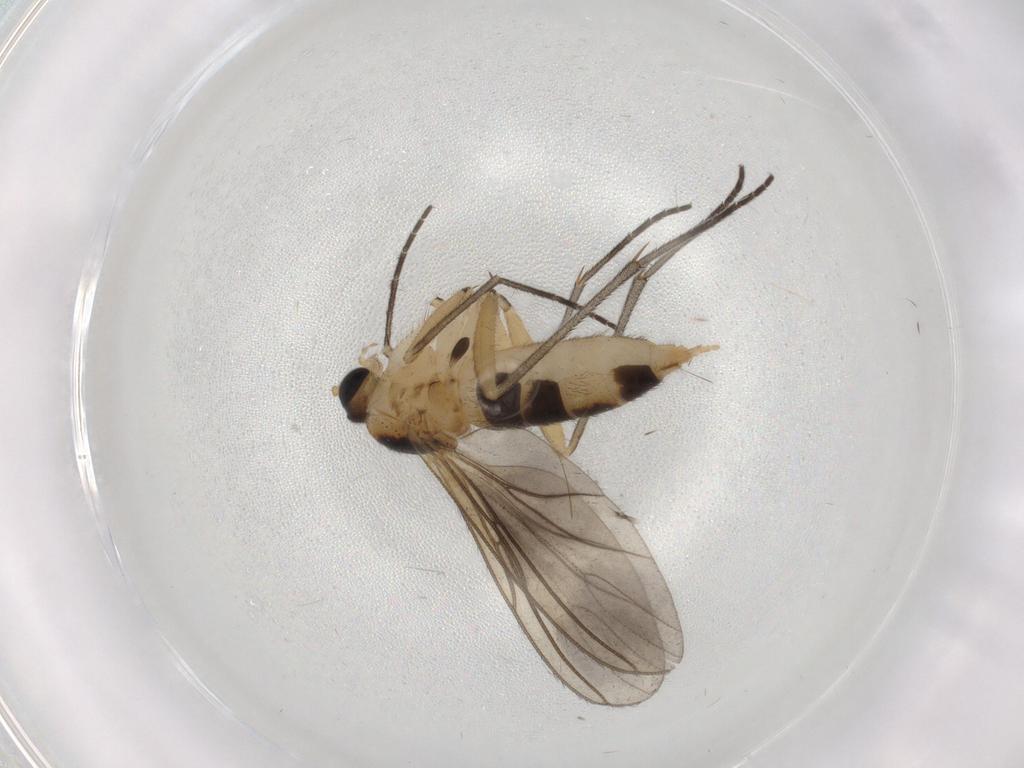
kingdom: Animalia
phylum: Arthropoda
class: Insecta
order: Diptera
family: Sciaridae
